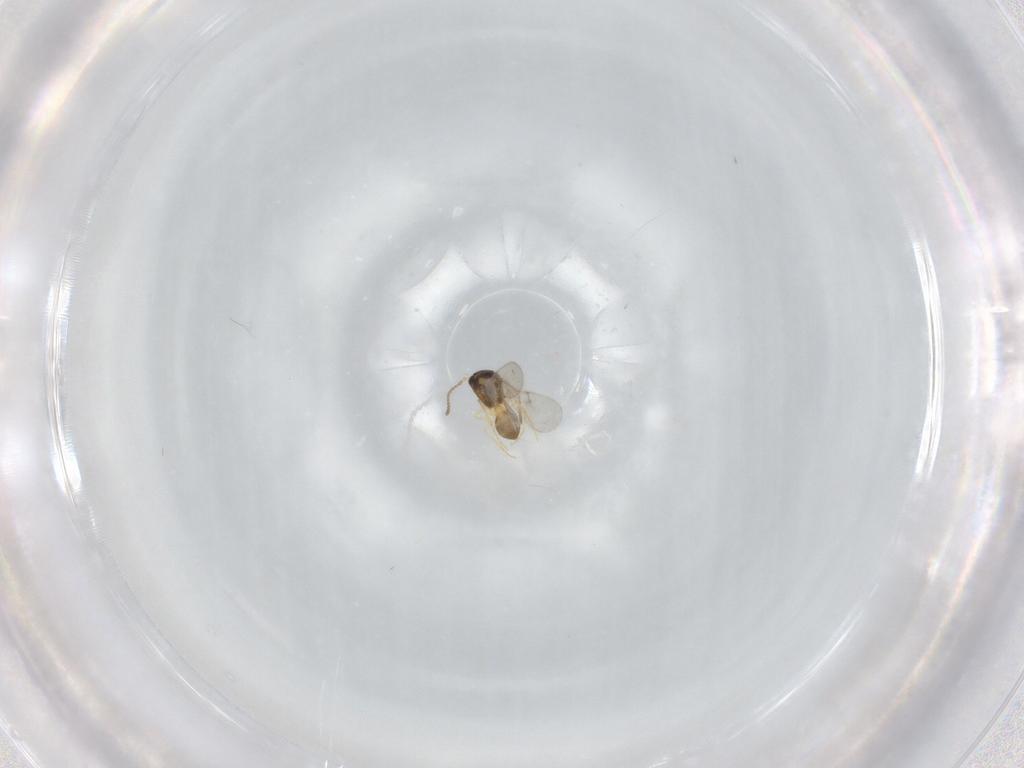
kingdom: Animalia
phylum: Arthropoda
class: Insecta
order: Hymenoptera
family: Scelionidae
